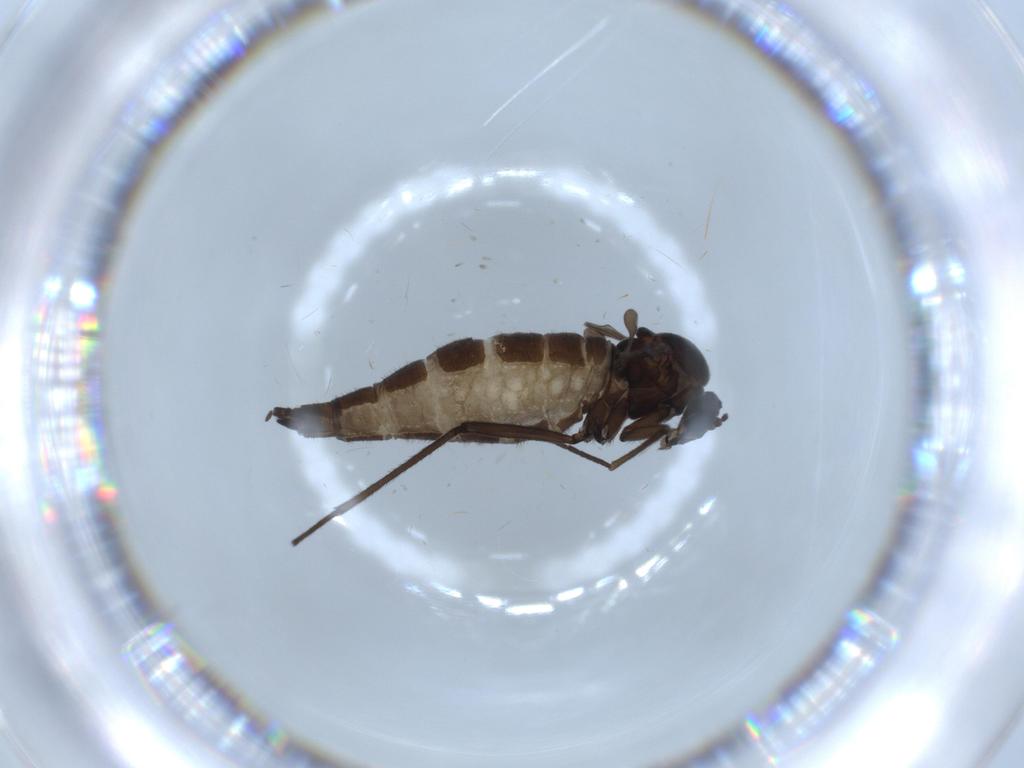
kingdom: Animalia
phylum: Arthropoda
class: Insecta
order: Diptera
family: Sciaridae
